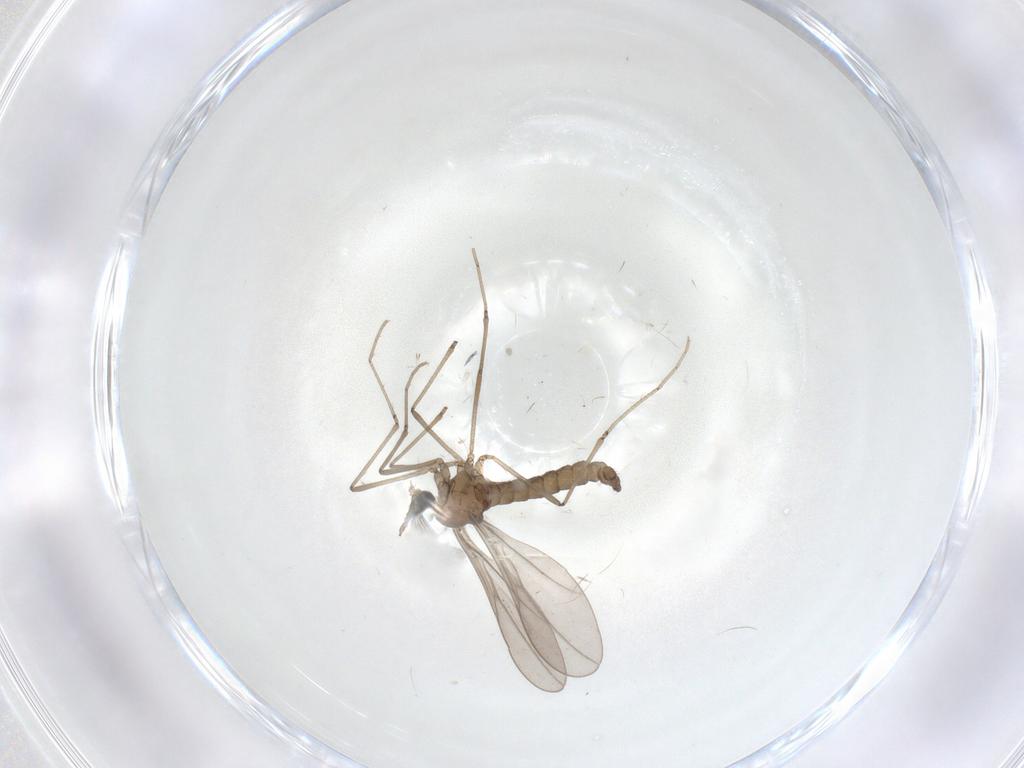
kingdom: Animalia
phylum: Arthropoda
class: Insecta
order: Diptera
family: Cecidomyiidae
